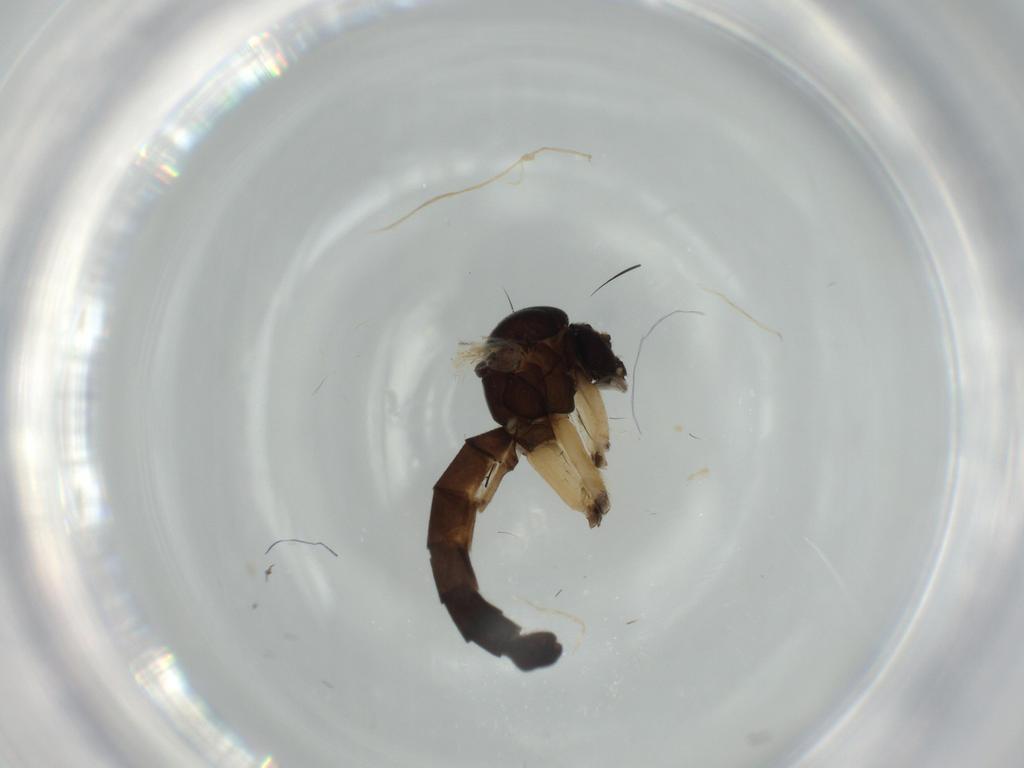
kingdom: Animalia
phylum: Arthropoda
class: Insecta
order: Diptera
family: Mycetophilidae
